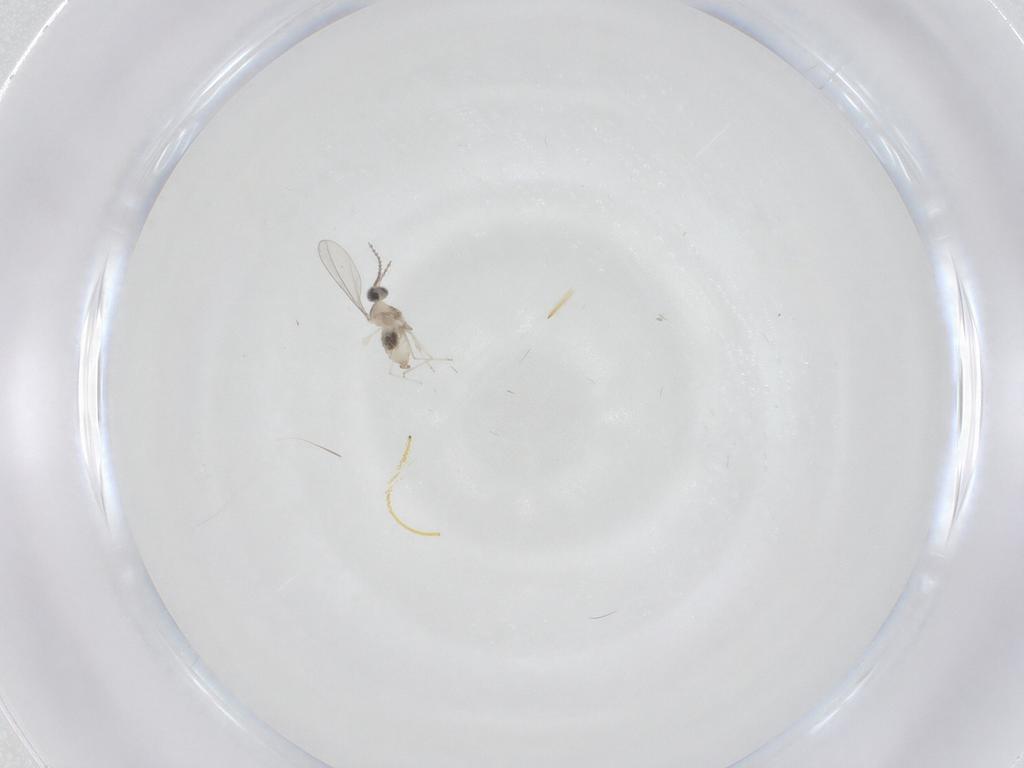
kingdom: Animalia
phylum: Arthropoda
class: Insecta
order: Diptera
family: Cecidomyiidae
